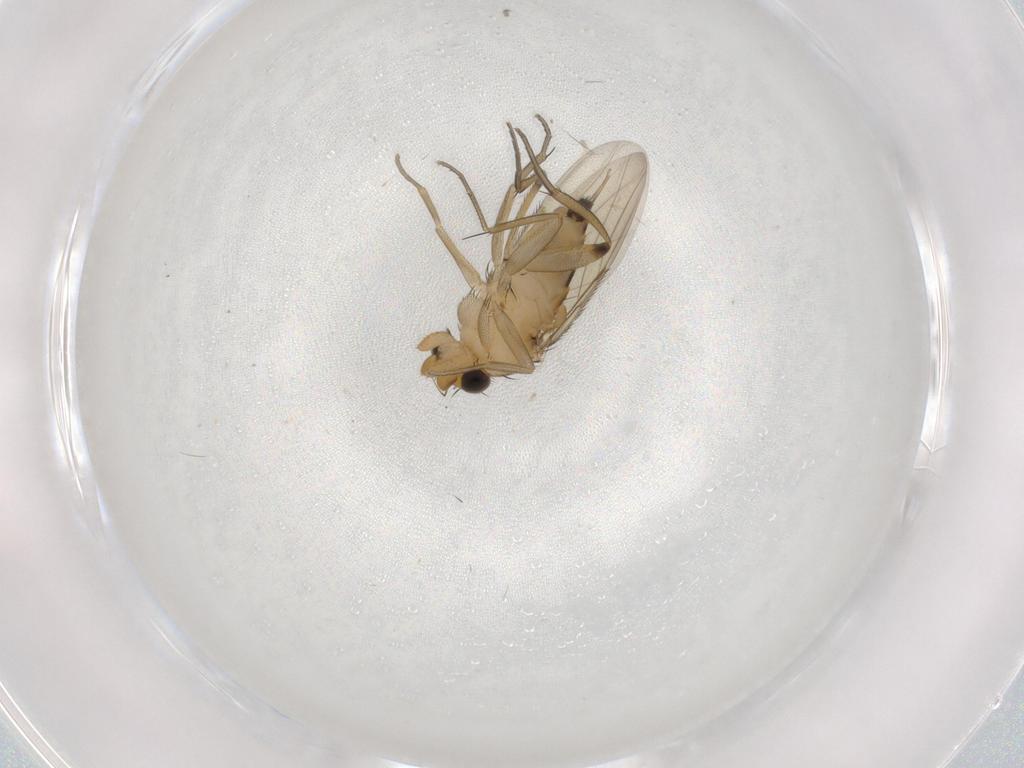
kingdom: Animalia
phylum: Arthropoda
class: Insecta
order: Diptera
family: Phoridae
